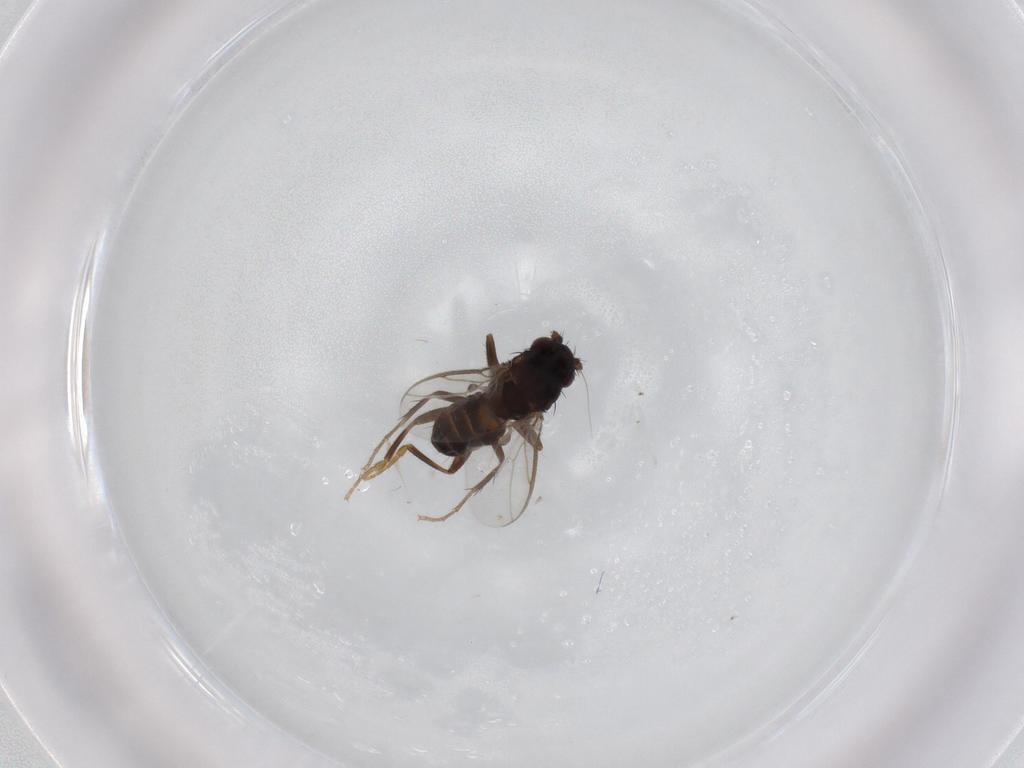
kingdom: Animalia
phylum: Arthropoda
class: Insecta
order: Diptera
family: Sphaeroceridae
